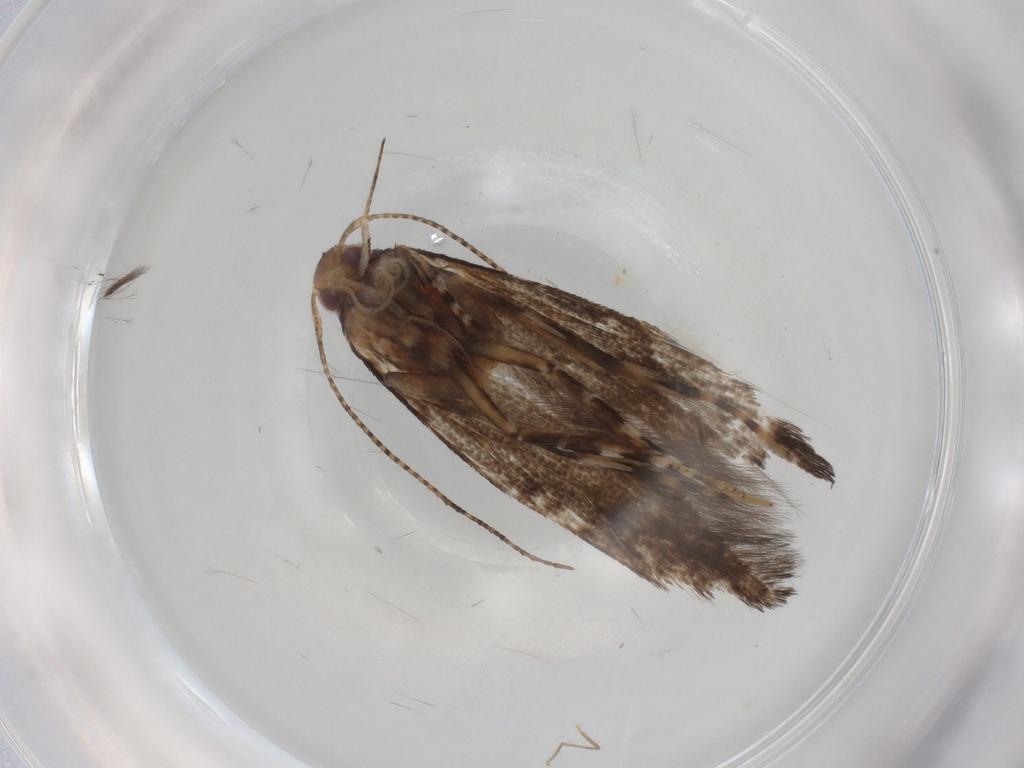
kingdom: Animalia
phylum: Arthropoda
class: Insecta
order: Lepidoptera
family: Cosmopterigidae
